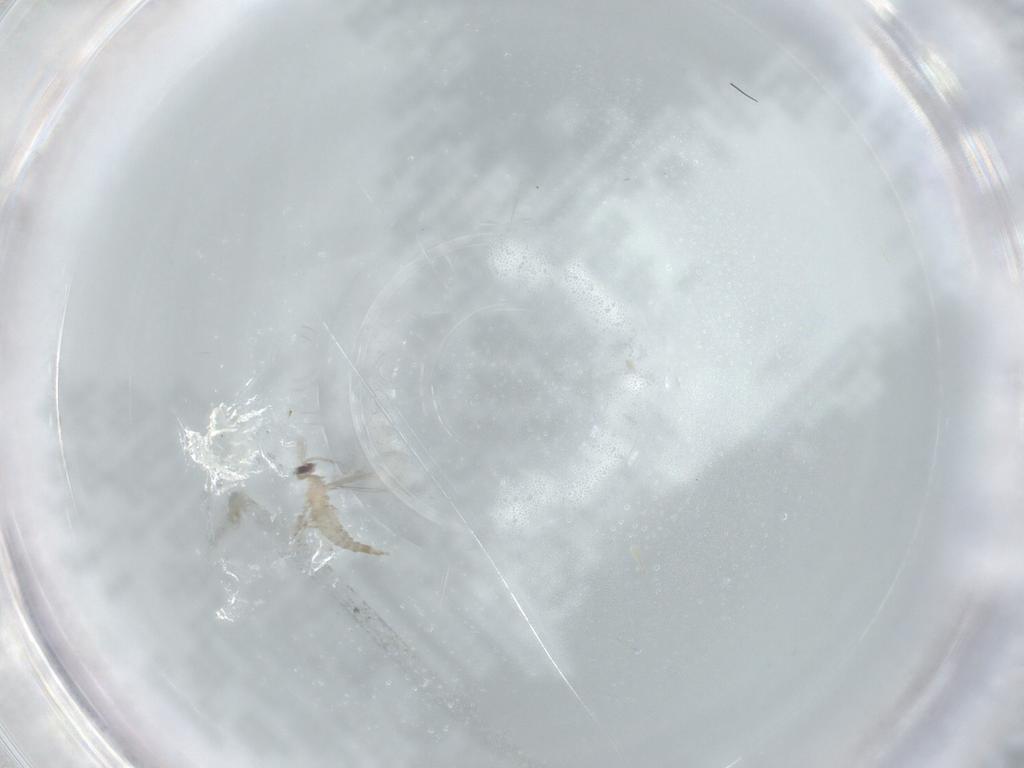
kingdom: Animalia
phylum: Arthropoda
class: Insecta
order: Diptera
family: Cecidomyiidae
